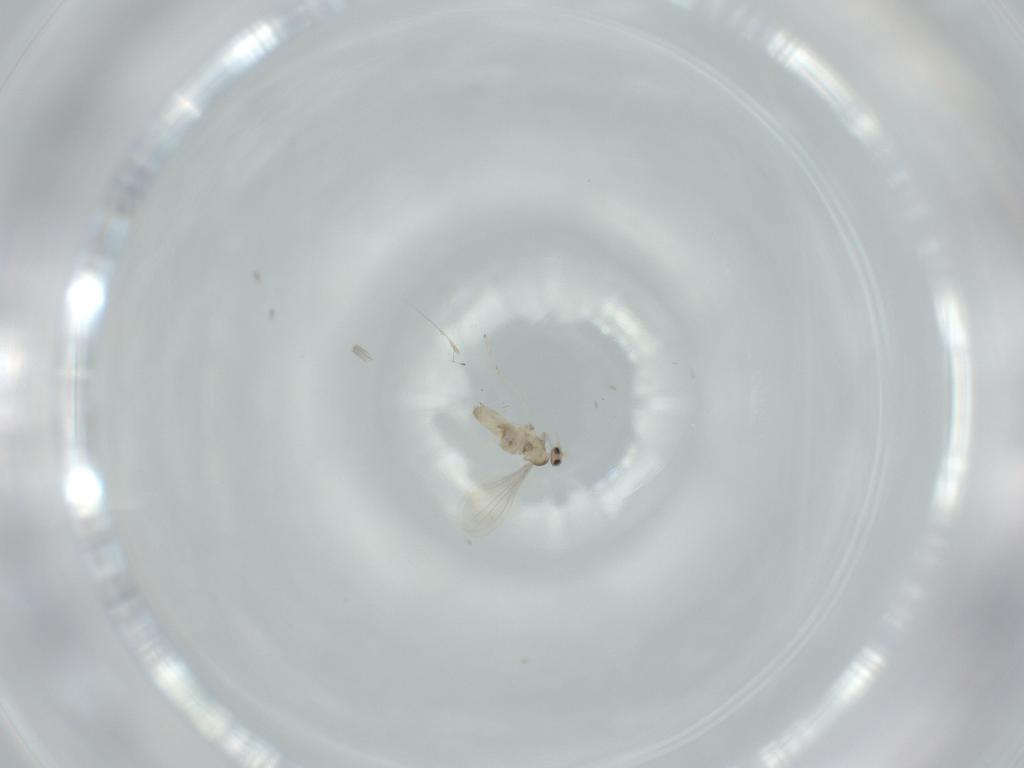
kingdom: Animalia
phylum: Arthropoda
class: Insecta
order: Diptera
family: Cecidomyiidae
